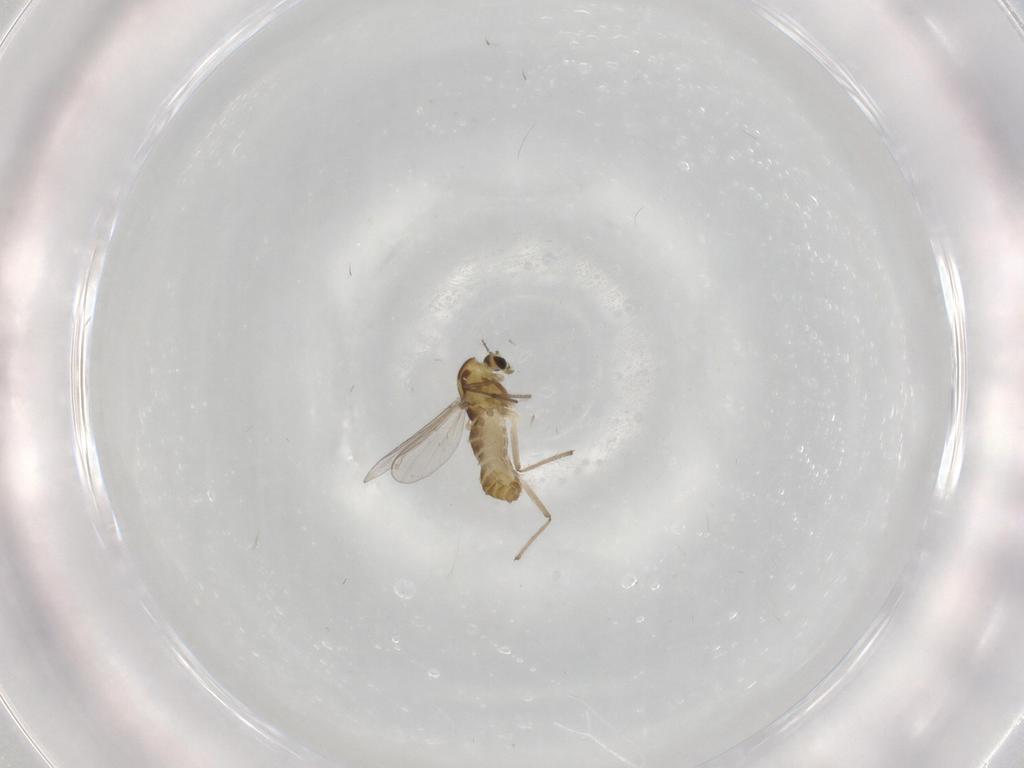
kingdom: Animalia
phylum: Arthropoda
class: Insecta
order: Diptera
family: Chironomidae
